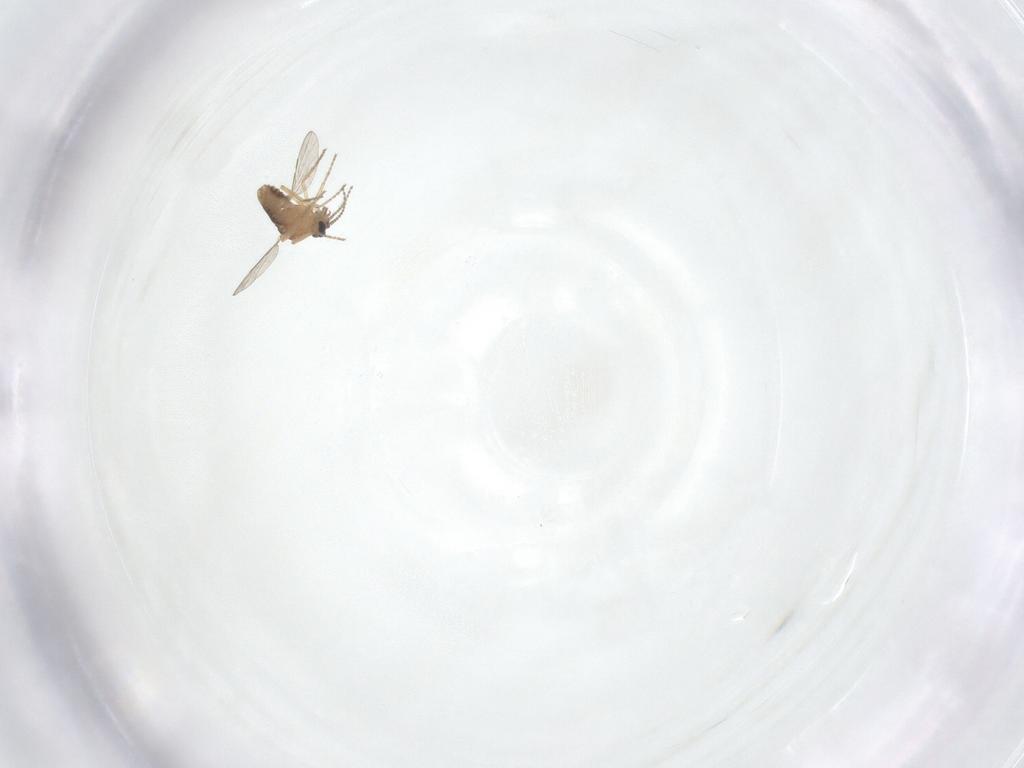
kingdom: Animalia
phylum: Arthropoda
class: Insecta
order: Diptera
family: Ceratopogonidae
